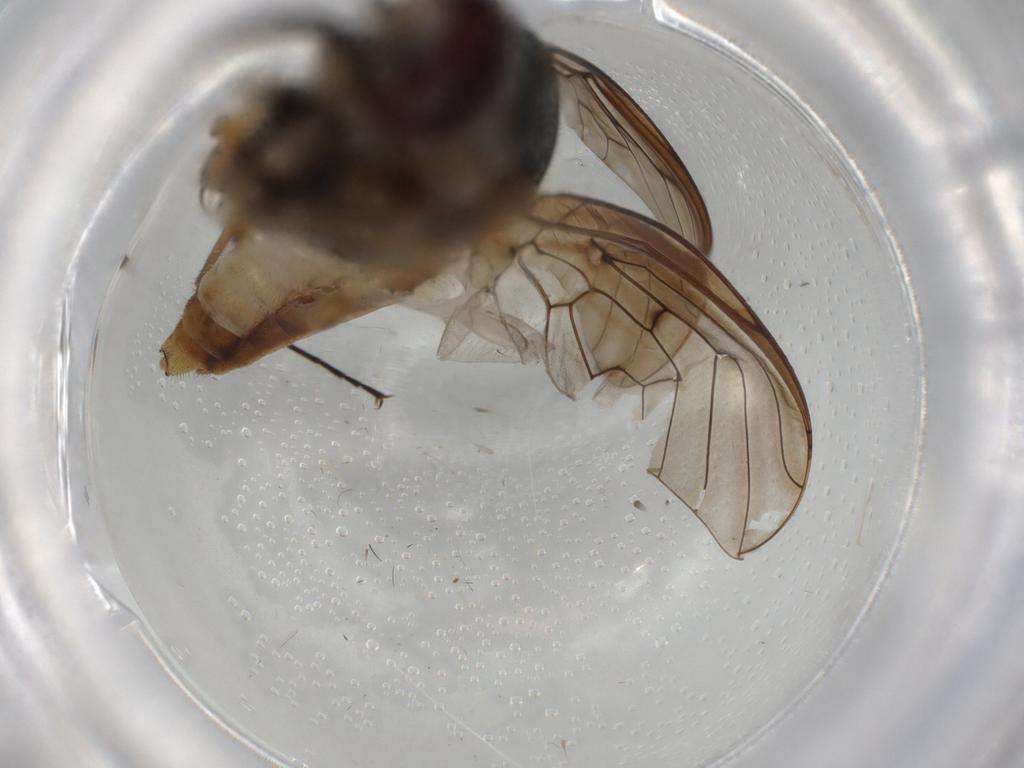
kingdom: Animalia
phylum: Arthropoda
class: Insecta
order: Diptera
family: Bombyliidae
